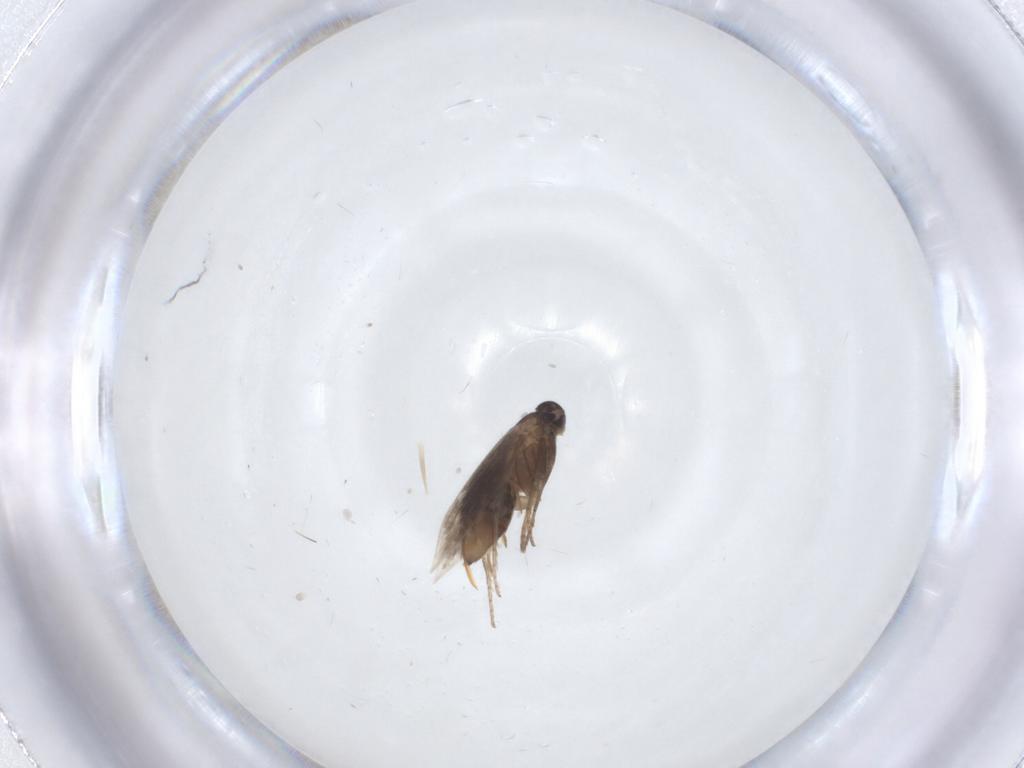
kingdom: Animalia
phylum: Arthropoda
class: Insecta
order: Lepidoptera
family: Heliozelidae
